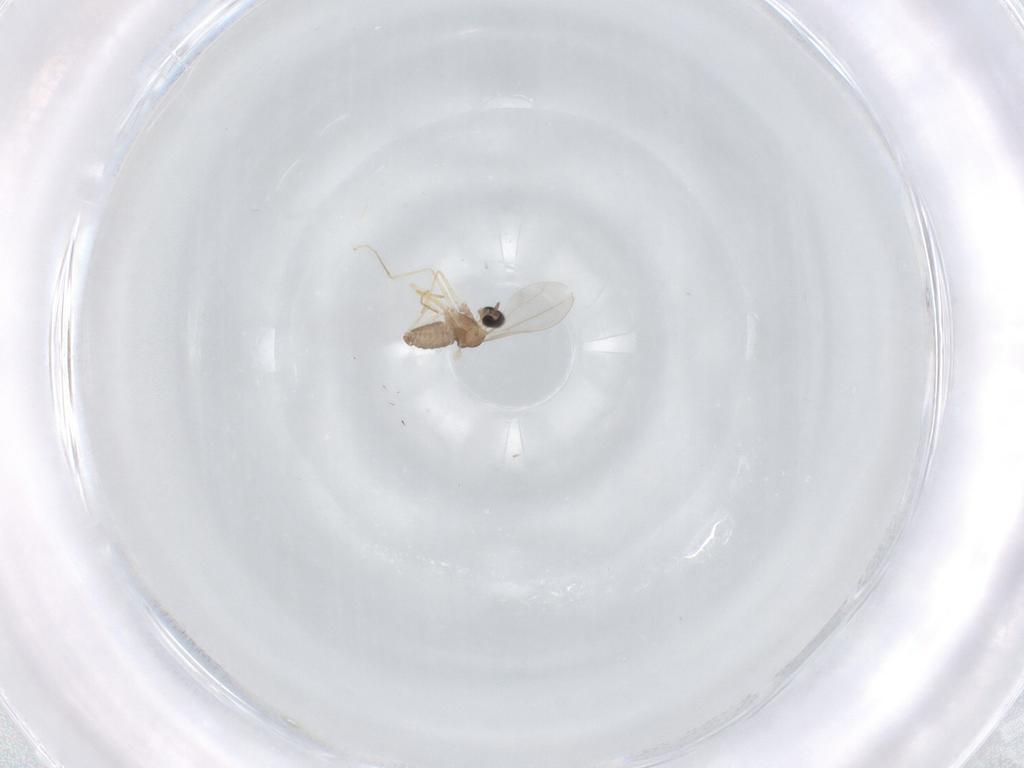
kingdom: Animalia
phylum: Arthropoda
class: Insecta
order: Diptera
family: Cecidomyiidae
